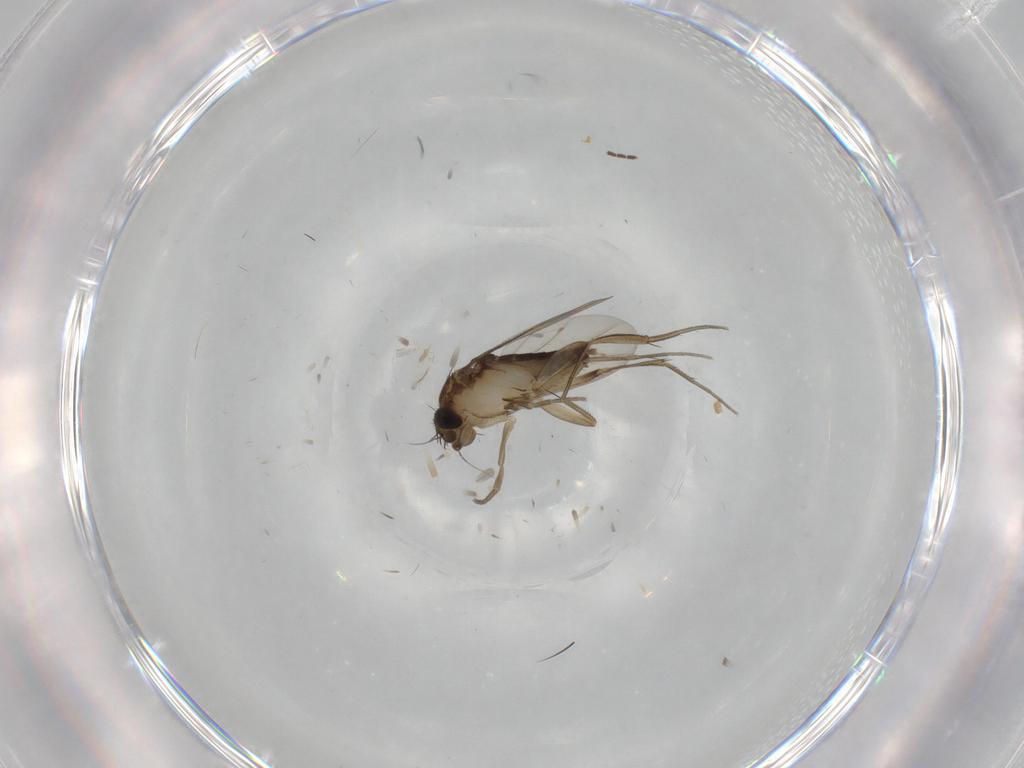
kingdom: Animalia
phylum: Arthropoda
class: Insecta
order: Diptera
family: Phoridae
